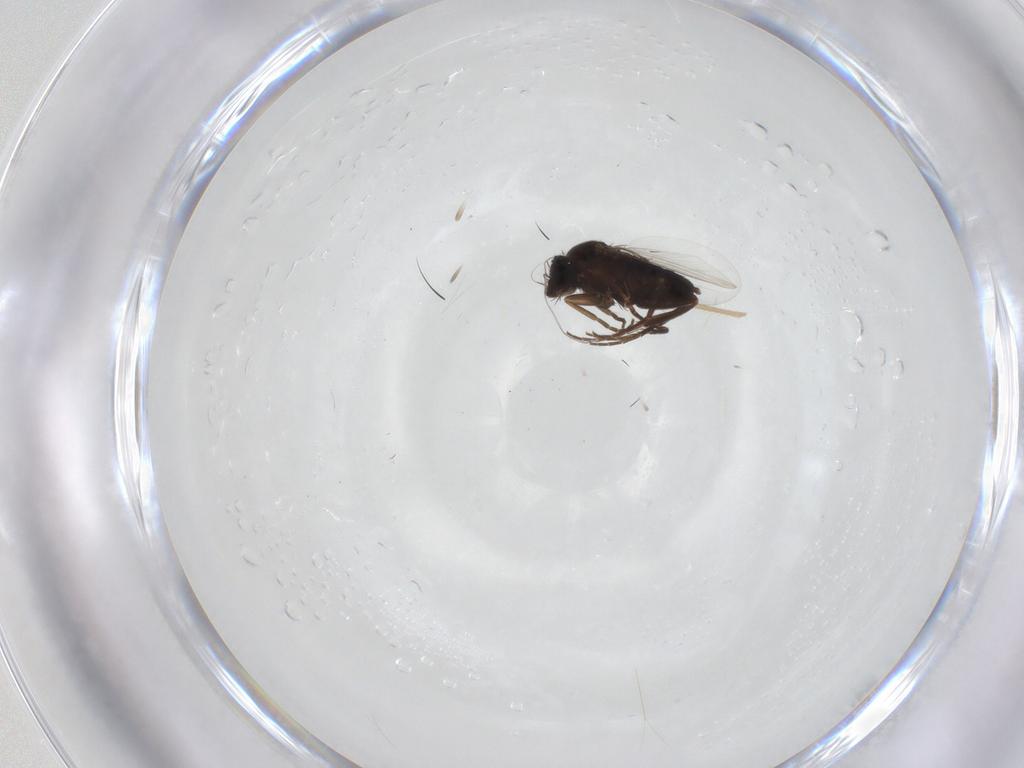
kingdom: Animalia
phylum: Arthropoda
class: Insecta
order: Diptera
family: Phoridae
